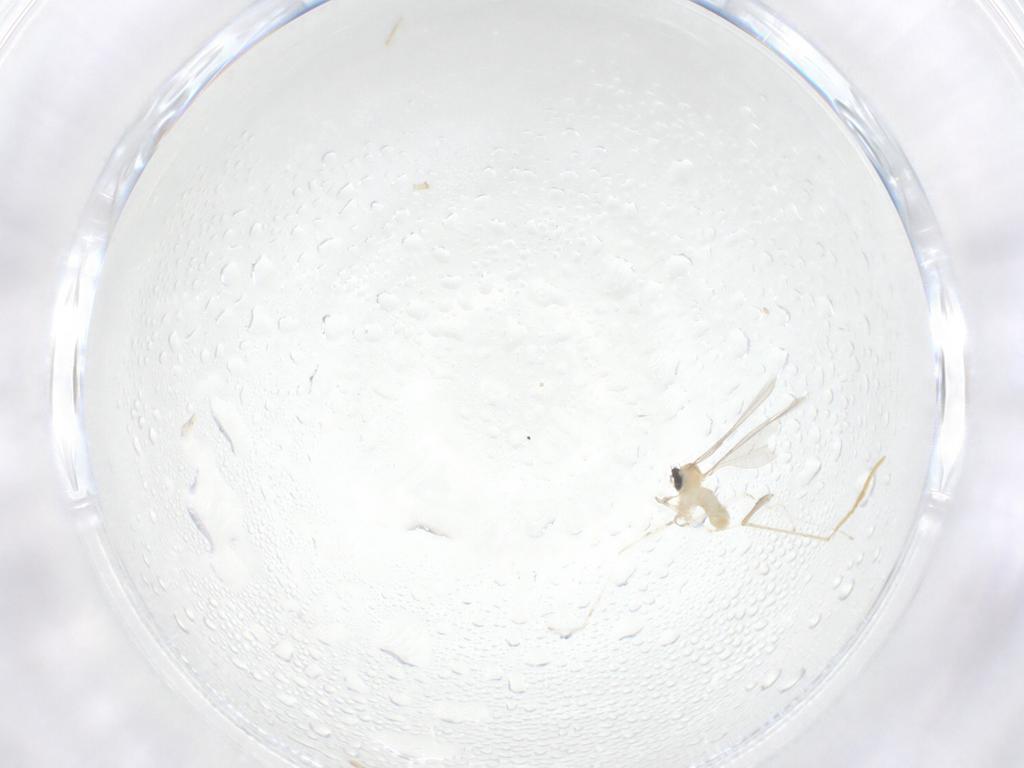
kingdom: Animalia
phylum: Arthropoda
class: Insecta
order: Diptera
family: Cecidomyiidae
